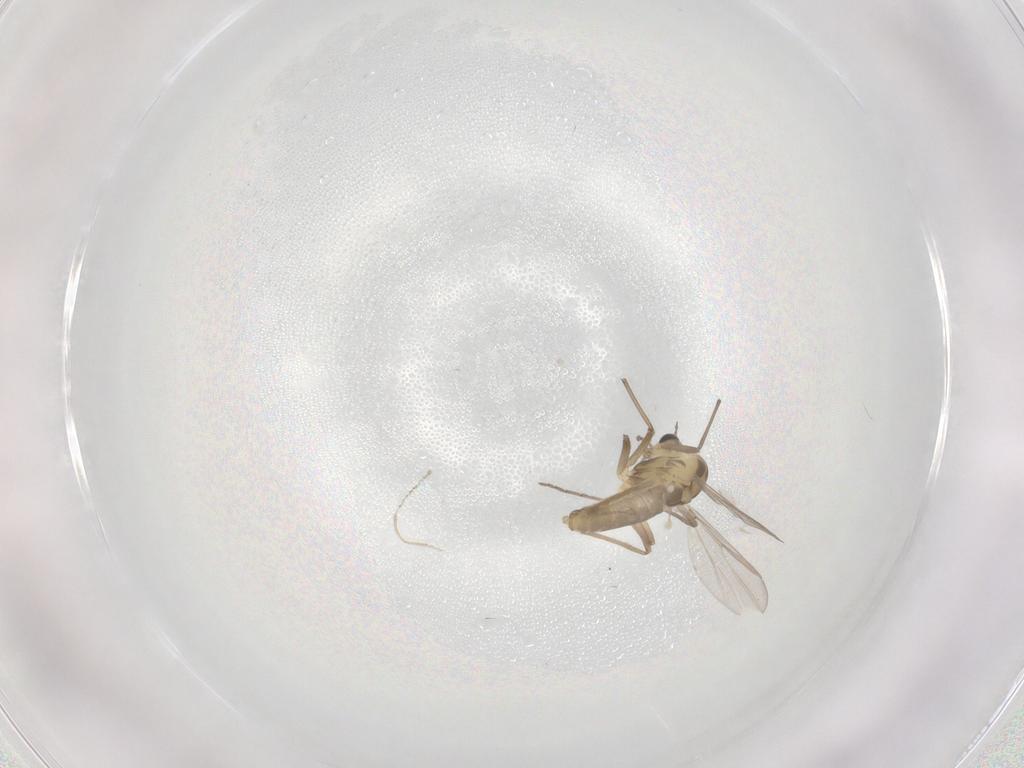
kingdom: Animalia
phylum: Arthropoda
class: Insecta
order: Diptera
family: Chironomidae
